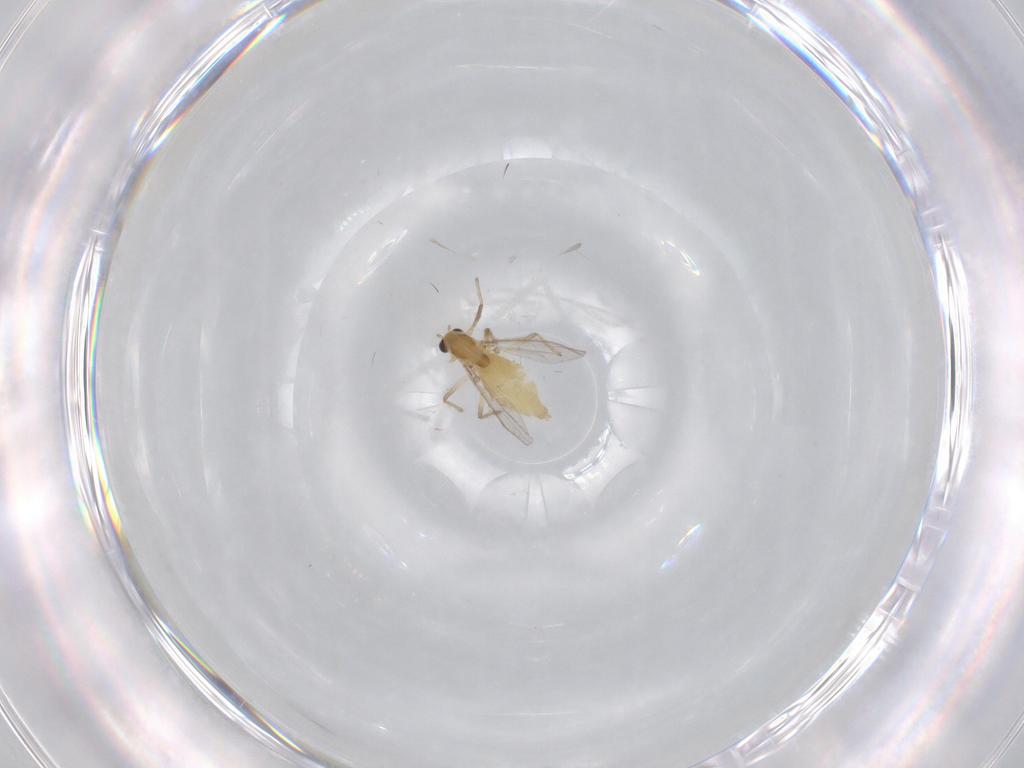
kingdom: Animalia
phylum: Arthropoda
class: Insecta
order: Diptera
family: Chironomidae
